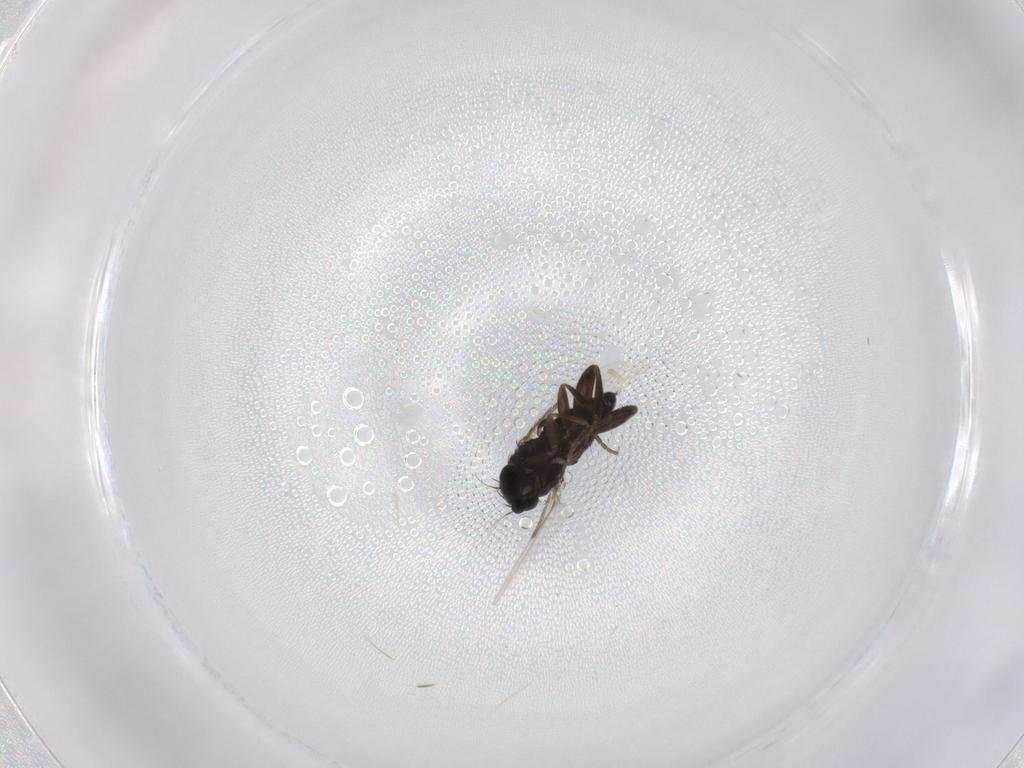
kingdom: Animalia
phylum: Arthropoda
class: Insecta
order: Diptera
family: Phoridae
